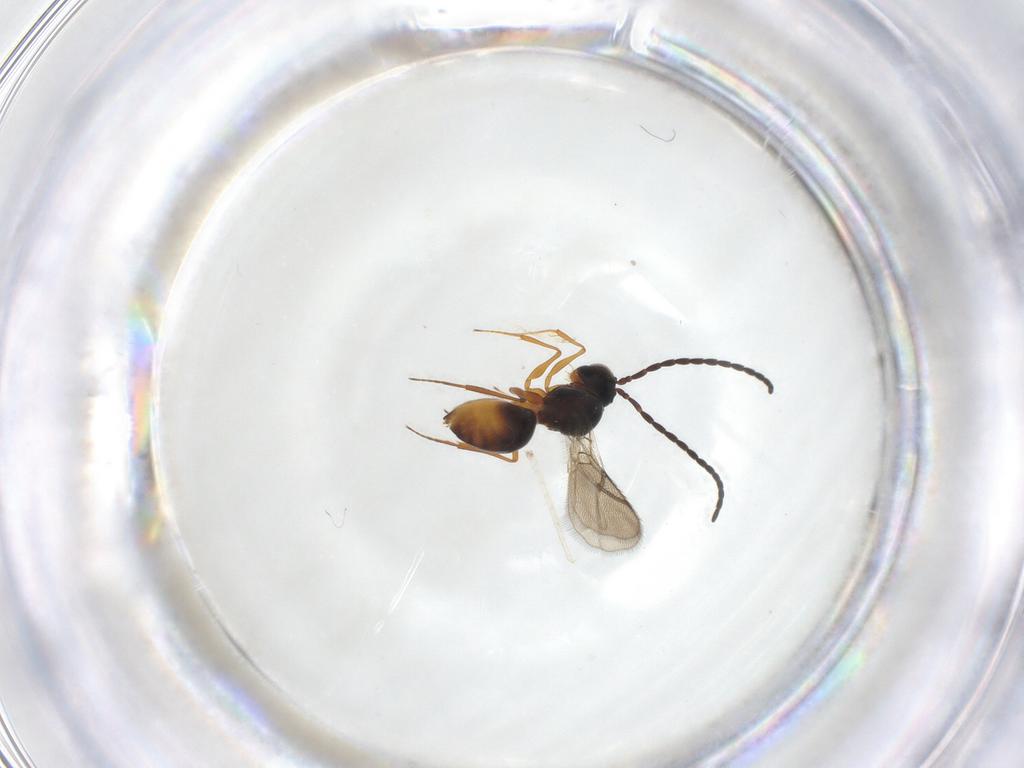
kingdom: Animalia
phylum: Arthropoda
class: Insecta
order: Hymenoptera
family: Figitidae
